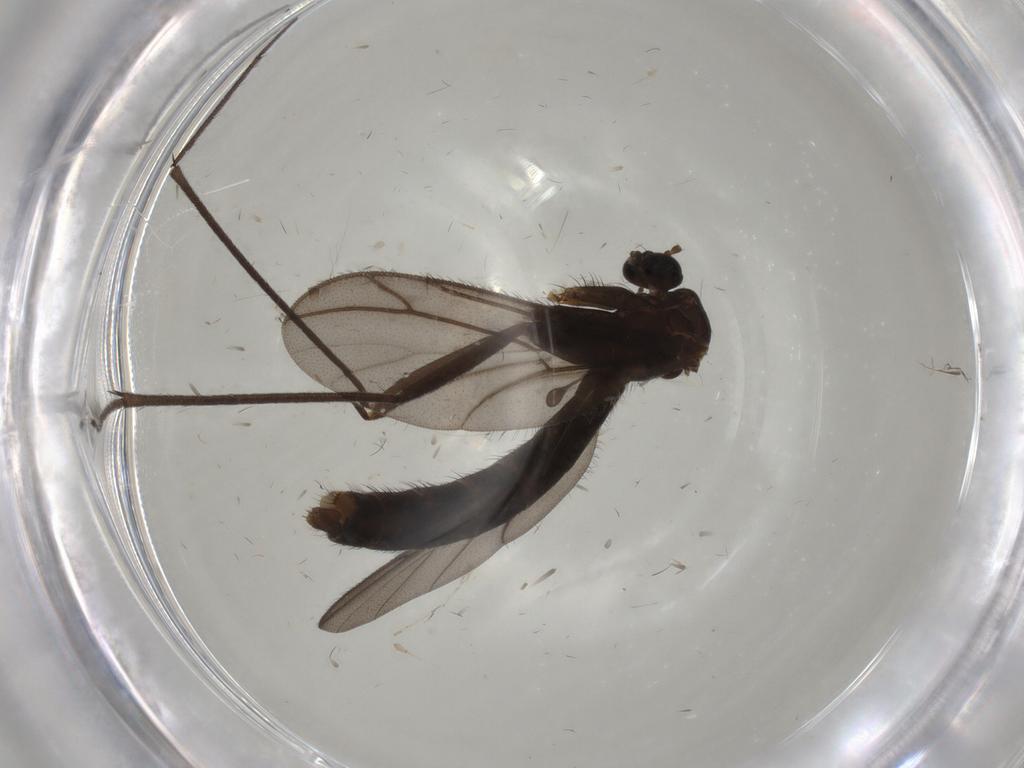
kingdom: Animalia
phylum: Arthropoda
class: Insecta
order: Diptera
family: Keroplatidae
